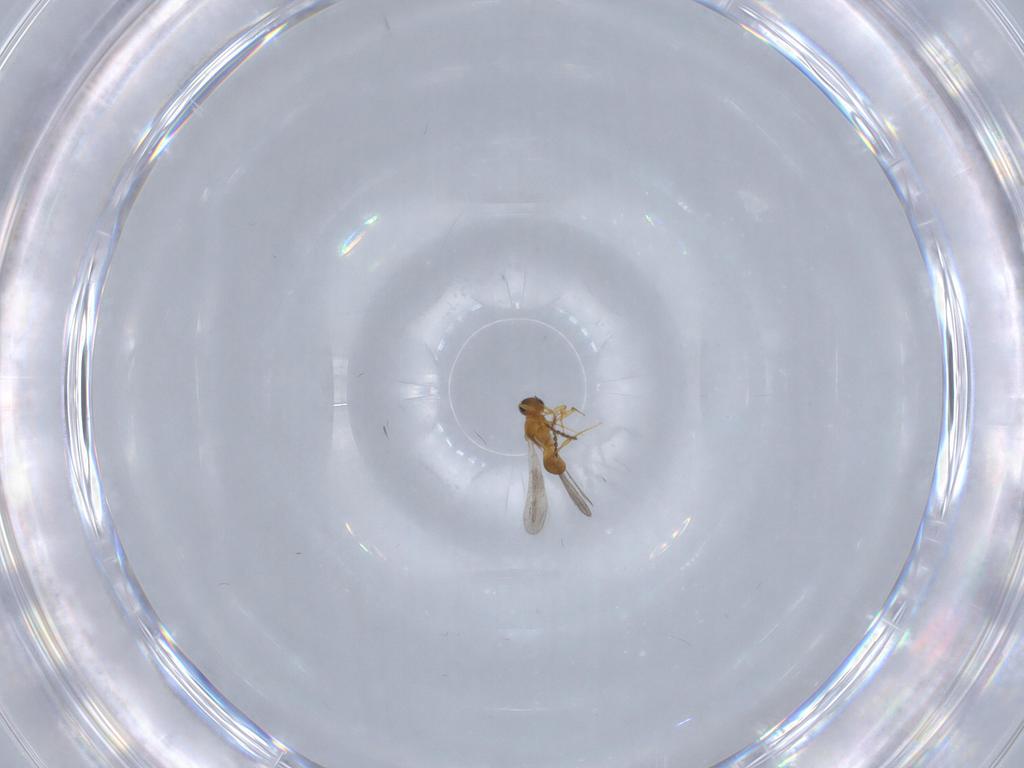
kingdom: Animalia
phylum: Arthropoda
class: Insecta
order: Hymenoptera
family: Platygastridae
